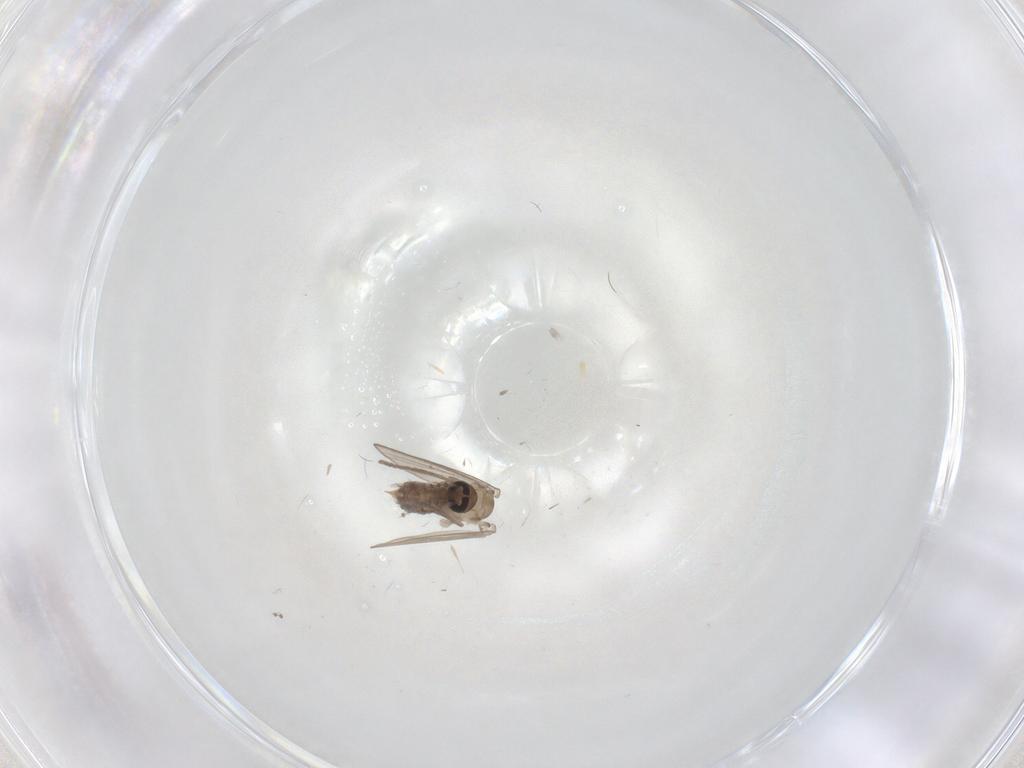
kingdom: Animalia
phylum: Arthropoda
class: Insecta
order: Diptera
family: Psychodidae
